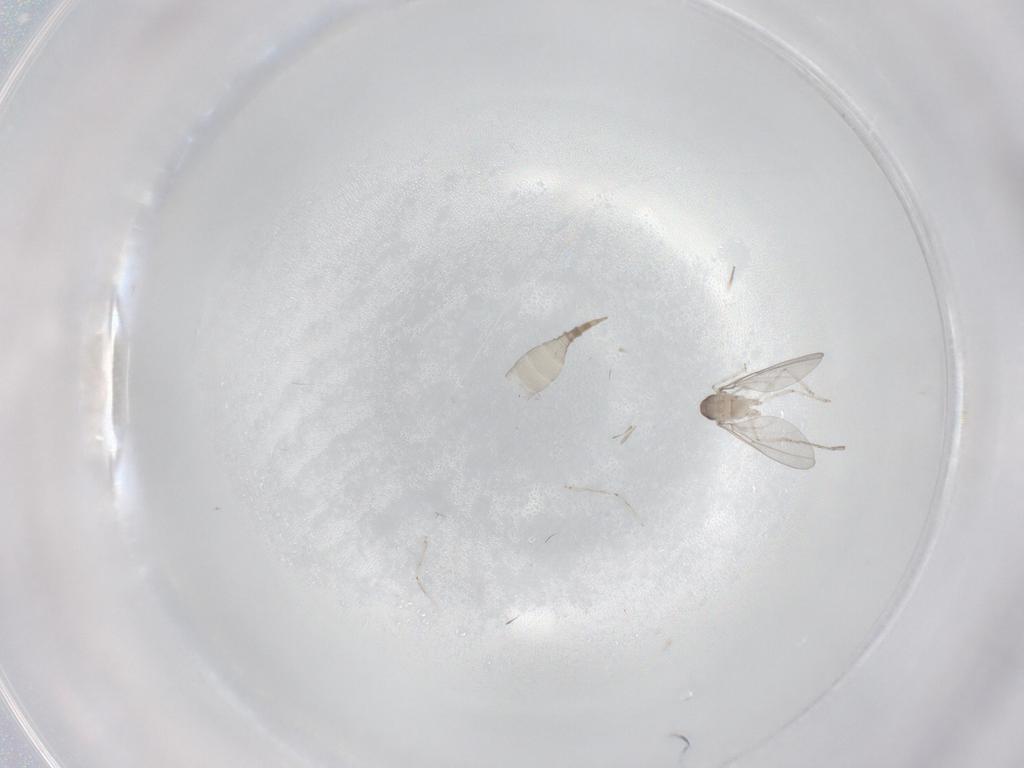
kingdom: Animalia
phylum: Arthropoda
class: Insecta
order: Diptera
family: Cecidomyiidae
